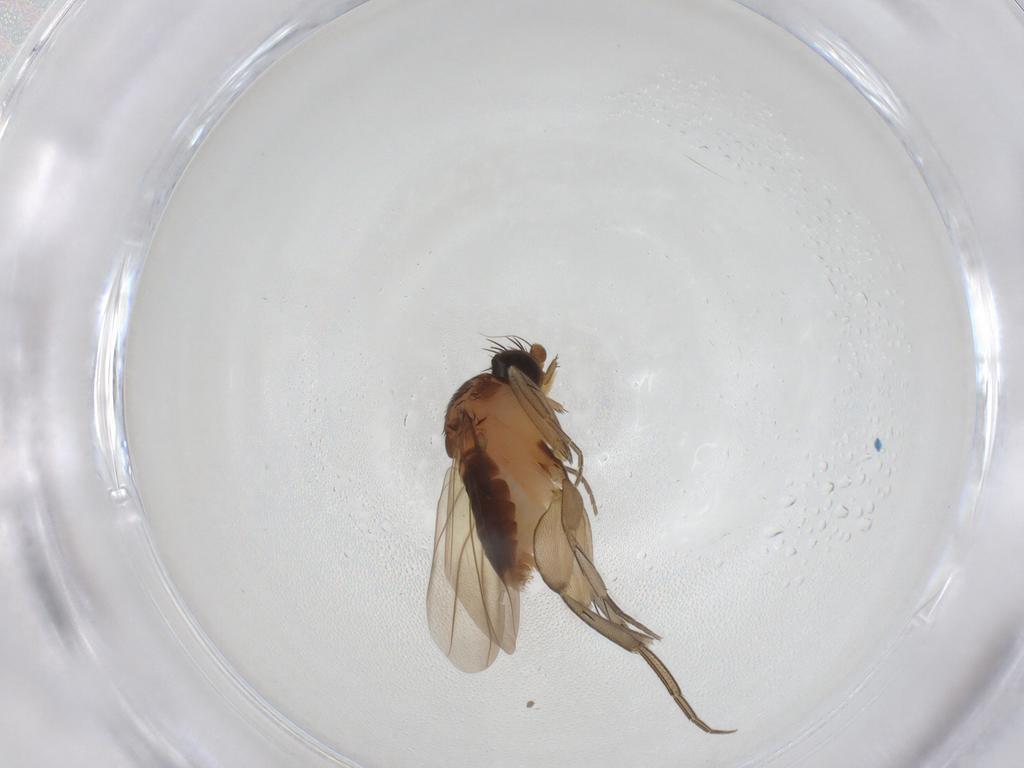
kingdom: Animalia
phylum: Arthropoda
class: Insecta
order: Diptera
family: Phoridae
